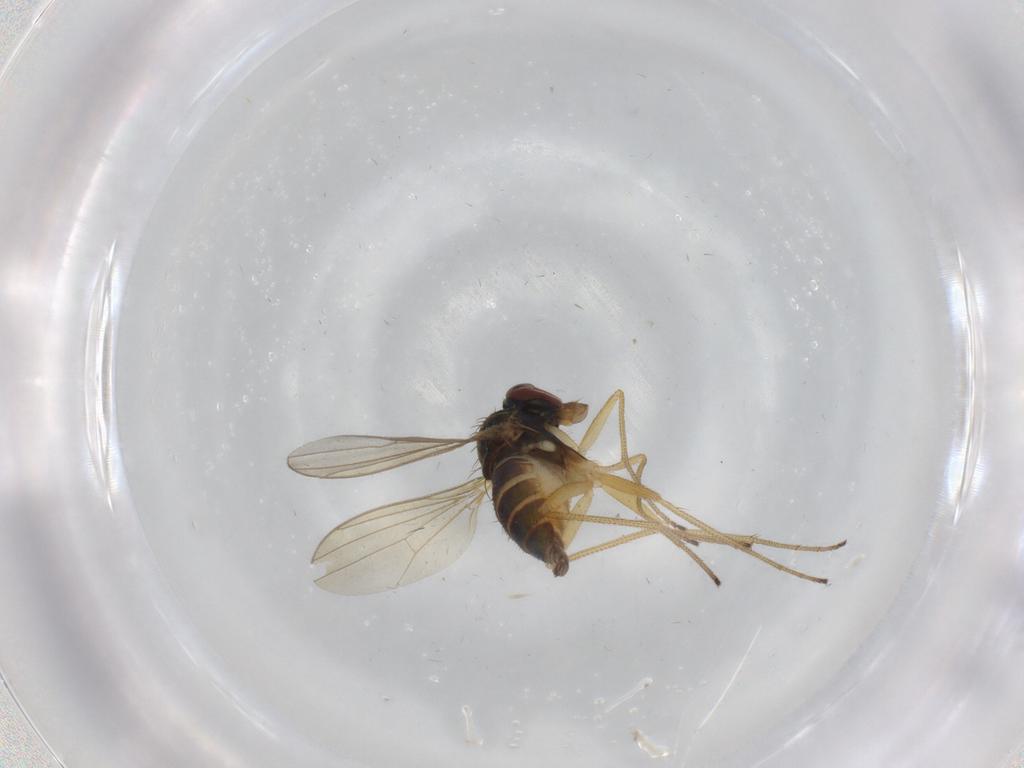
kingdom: Animalia
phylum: Arthropoda
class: Insecta
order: Diptera
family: Dolichopodidae
